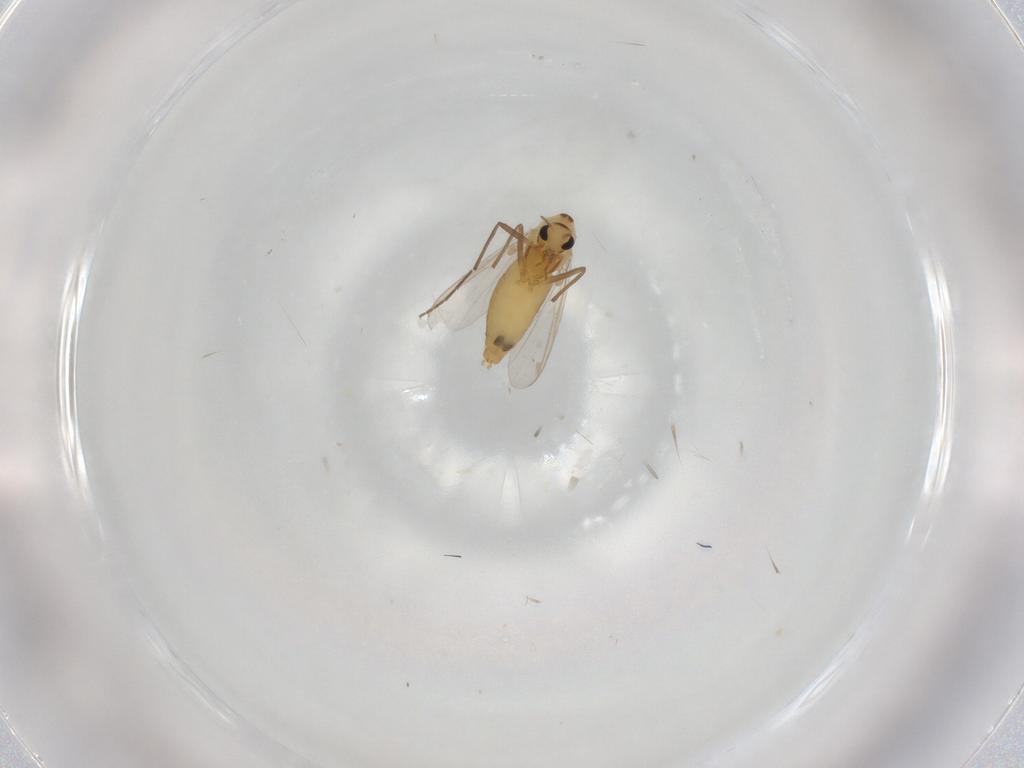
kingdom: Animalia
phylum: Arthropoda
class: Insecta
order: Diptera
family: Chironomidae
